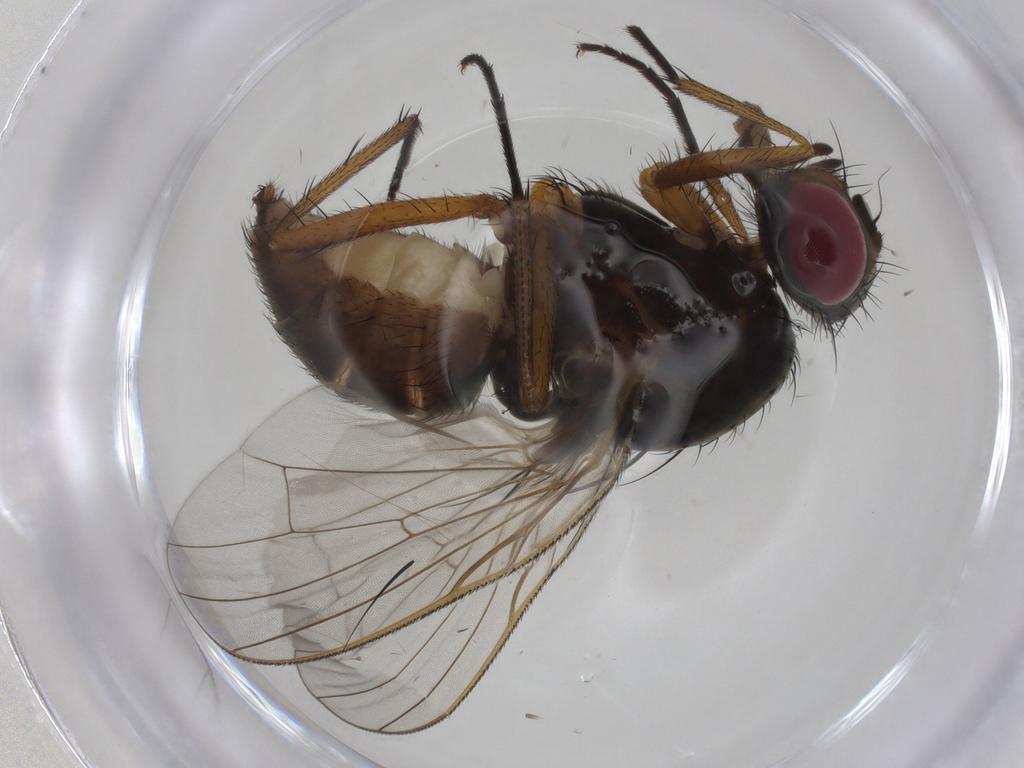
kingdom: Animalia
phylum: Arthropoda
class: Insecta
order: Diptera
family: Anthomyiidae
